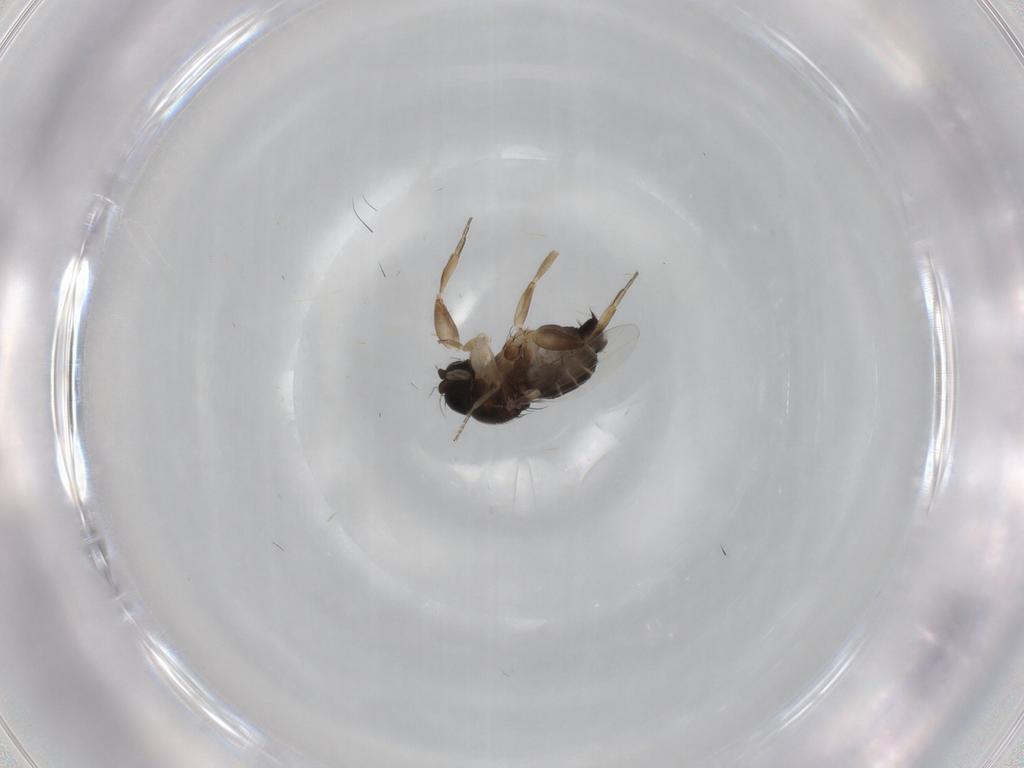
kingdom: Animalia
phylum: Arthropoda
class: Insecta
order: Diptera
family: Phoridae
